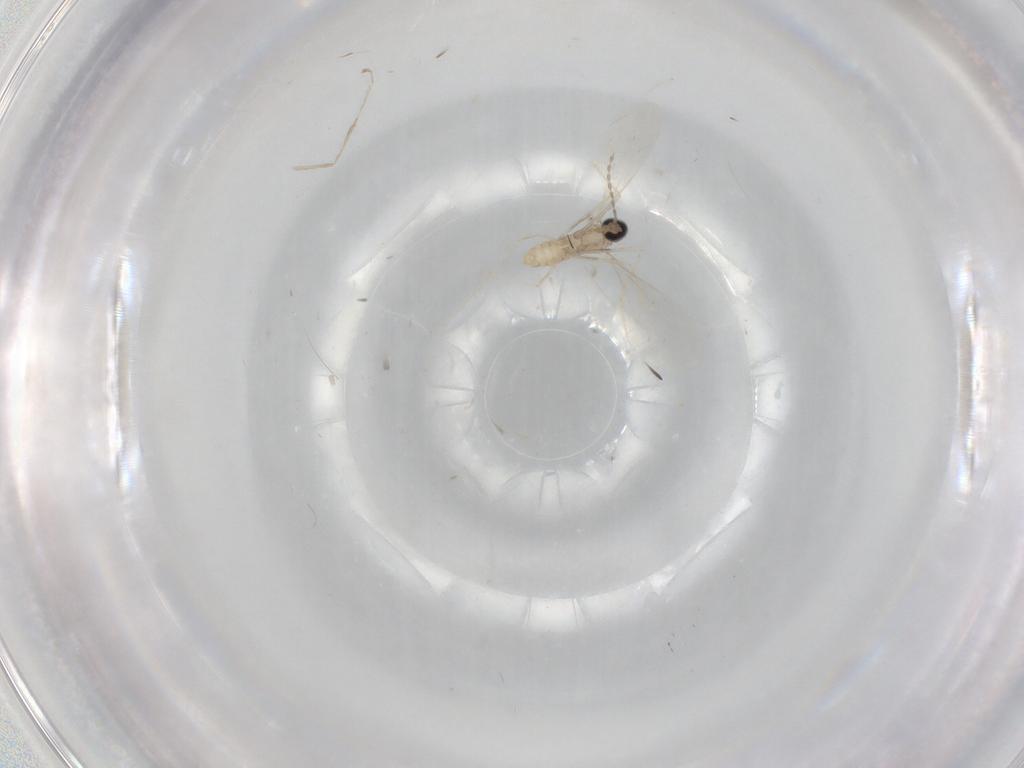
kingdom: Animalia
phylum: Arthropoda
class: Insecta
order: Diptera
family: Cecidomyiidae
